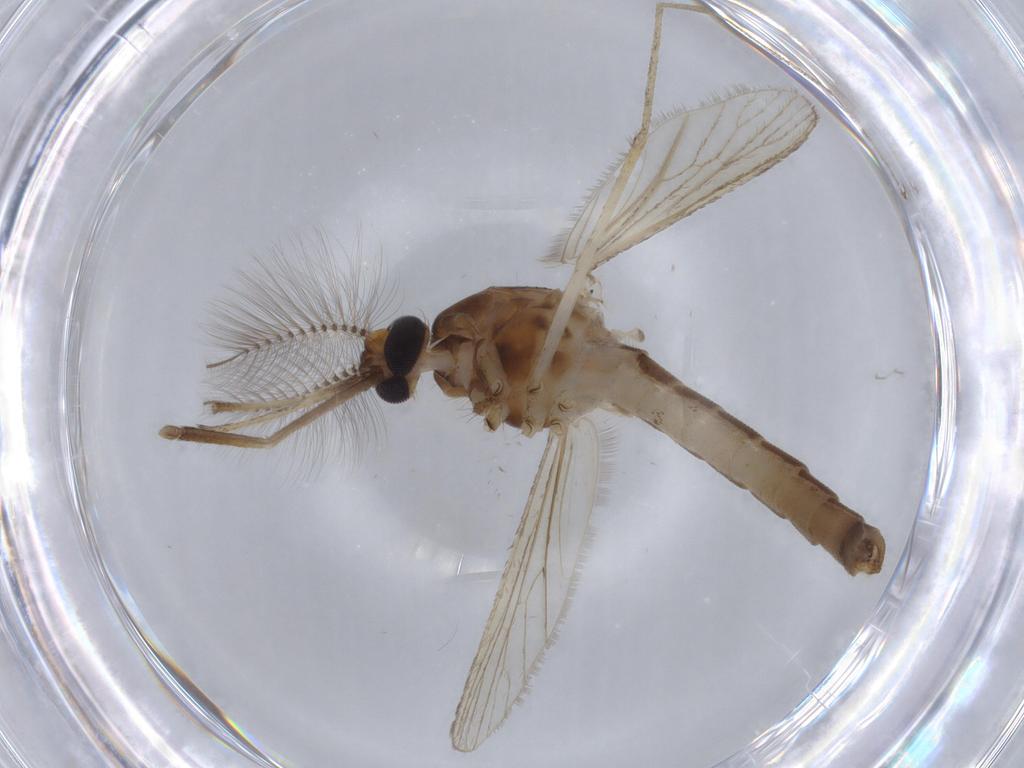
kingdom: Animalia
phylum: Arthropoda
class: Insecta
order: Diptera
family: Culicidae
